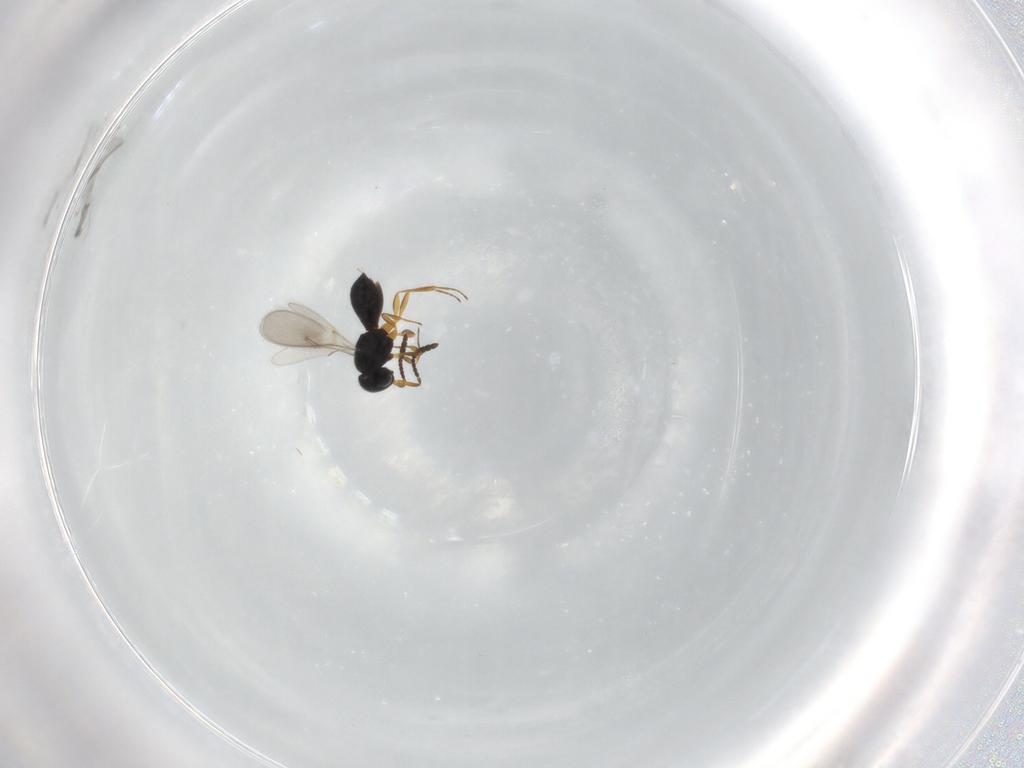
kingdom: Animalia
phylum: Arthropoda
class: Insecta
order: Hymenoptera
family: Scelionidae
